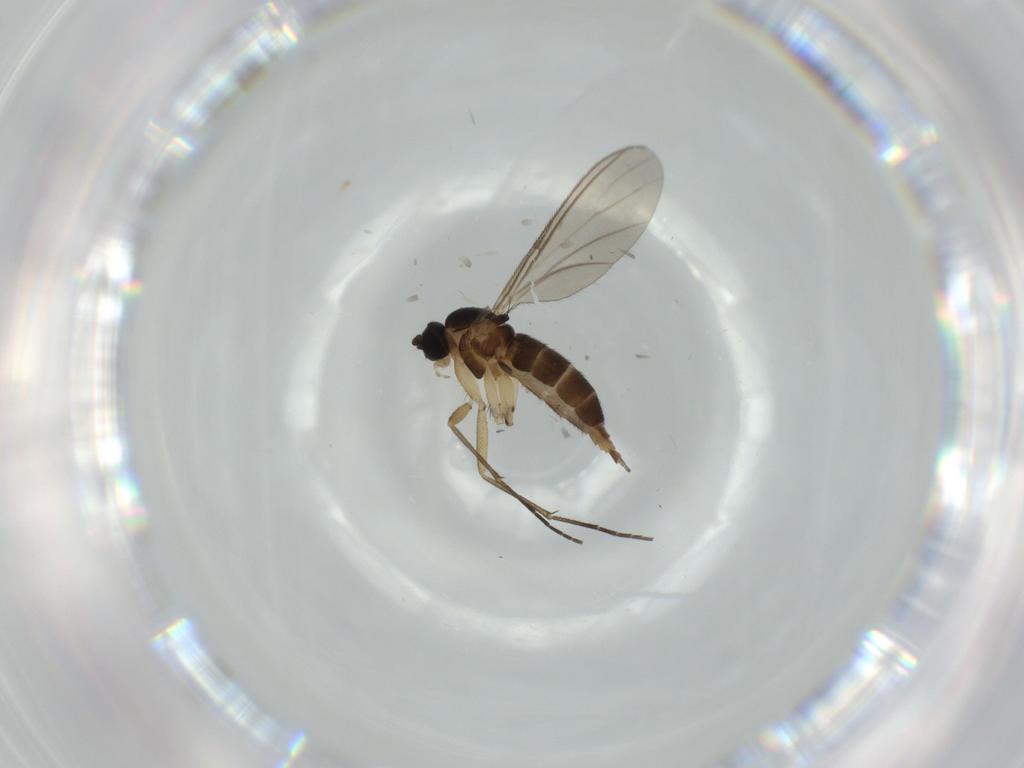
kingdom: Animalia
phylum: Arthropoda
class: Insecta
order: Diptera
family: Sciaridae
